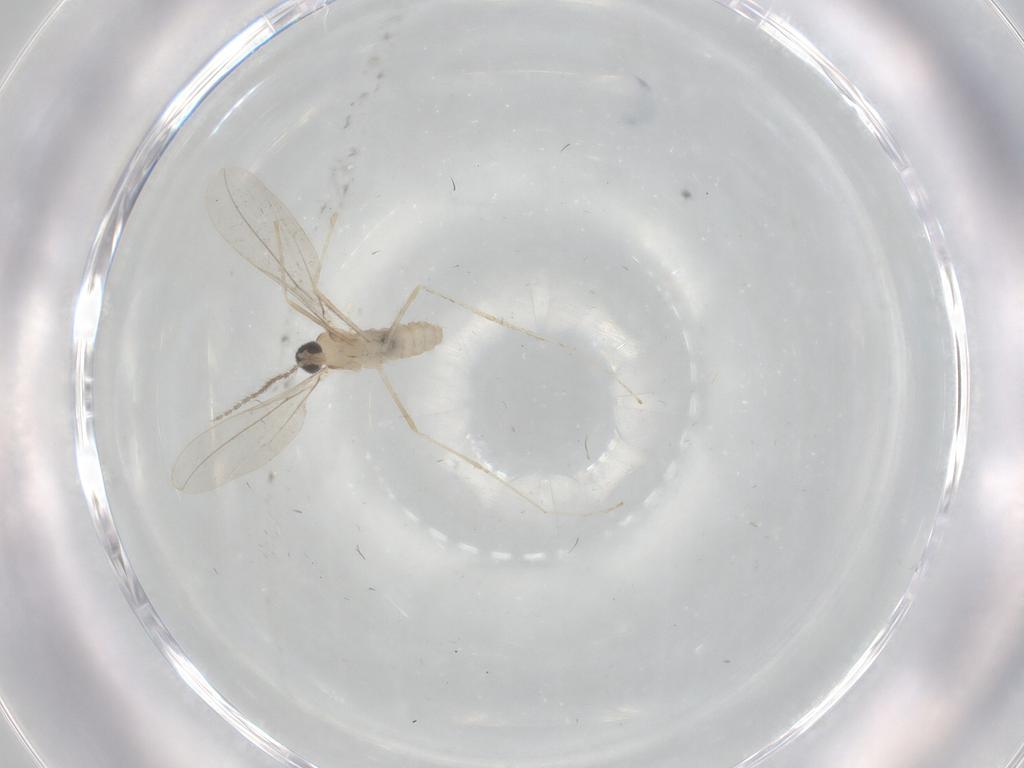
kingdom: Animalia
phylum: Arthropoda
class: Insecta
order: Diptera
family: Cecidomyiidae
